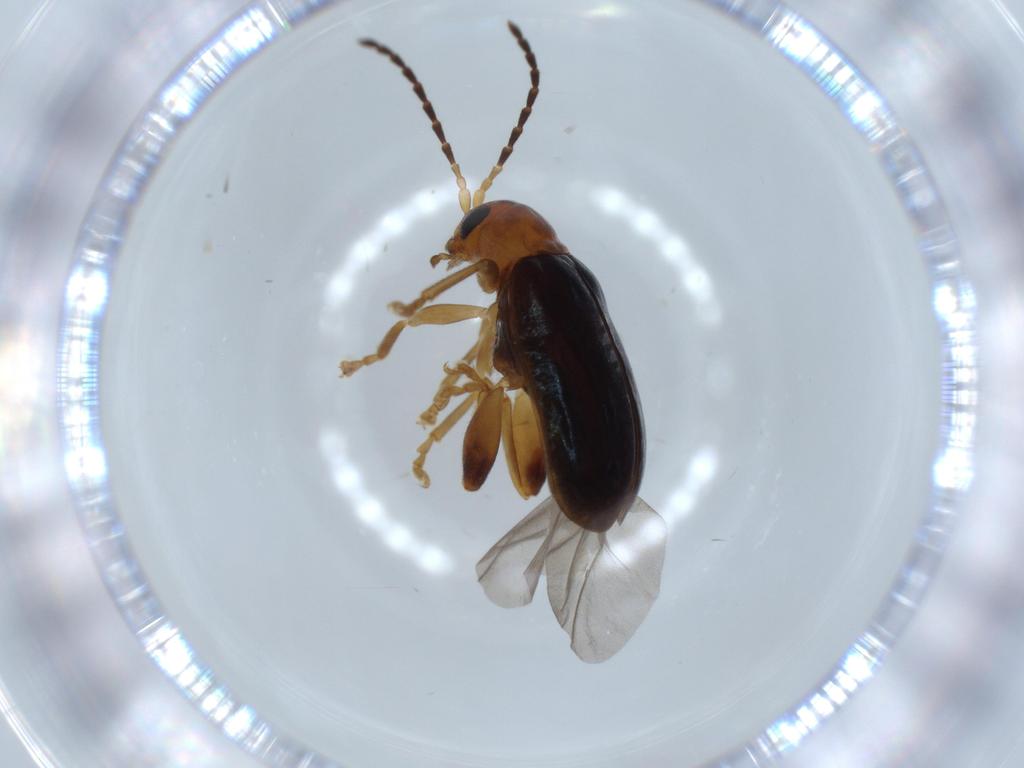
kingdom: Animalia
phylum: Arthropoda
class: Insecta
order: Coleoptera
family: Chrysomelidae
